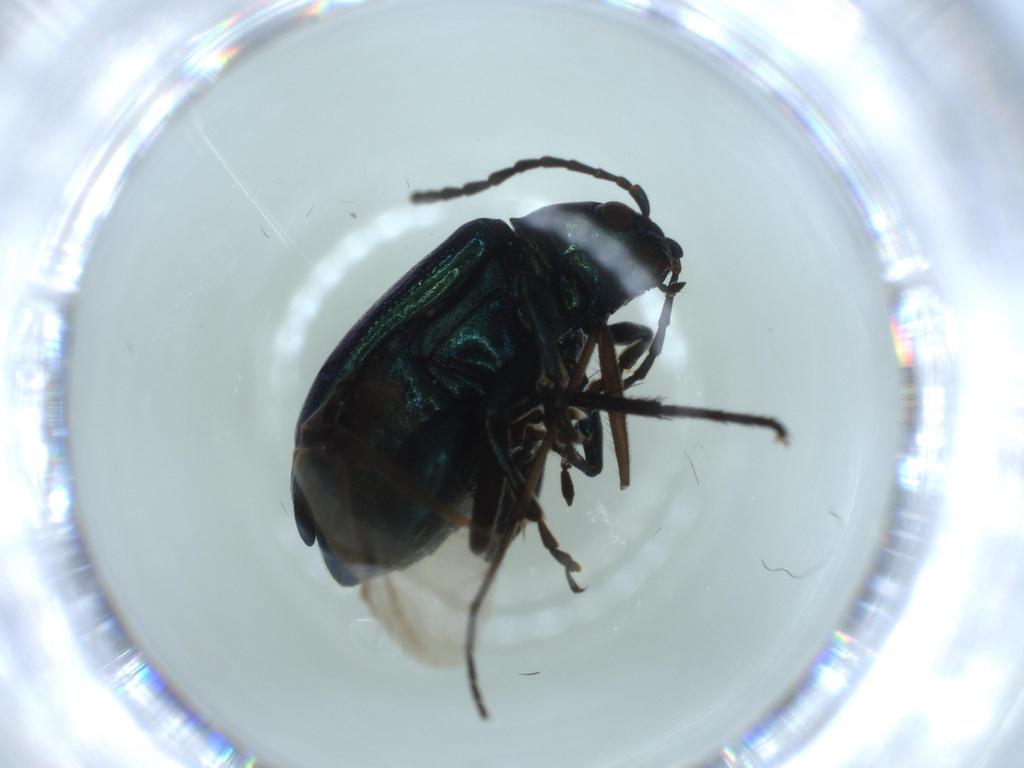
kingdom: Animalia
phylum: Arthropoda
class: Insecta
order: Coleoptera
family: Chrysomelidae
